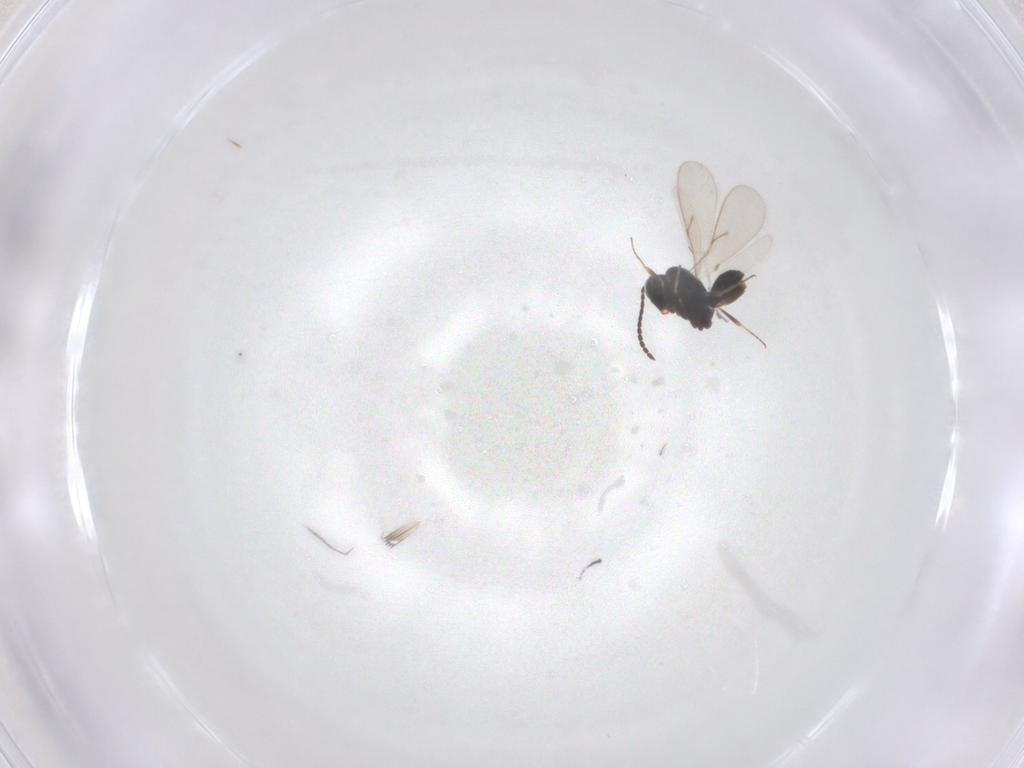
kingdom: Animalia
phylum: Arthropoda
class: Insecta
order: Hymenoptera
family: Scelionidae
